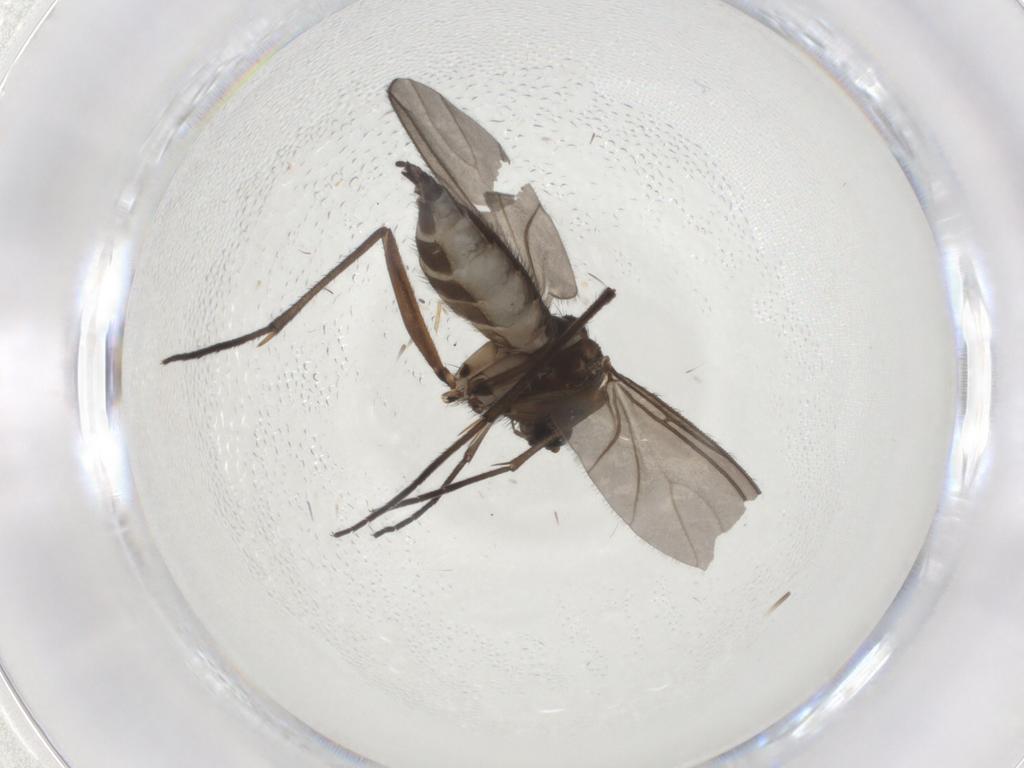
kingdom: Animalia
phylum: Arthropoda
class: Insecta
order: Diptera
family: Sciaridae
